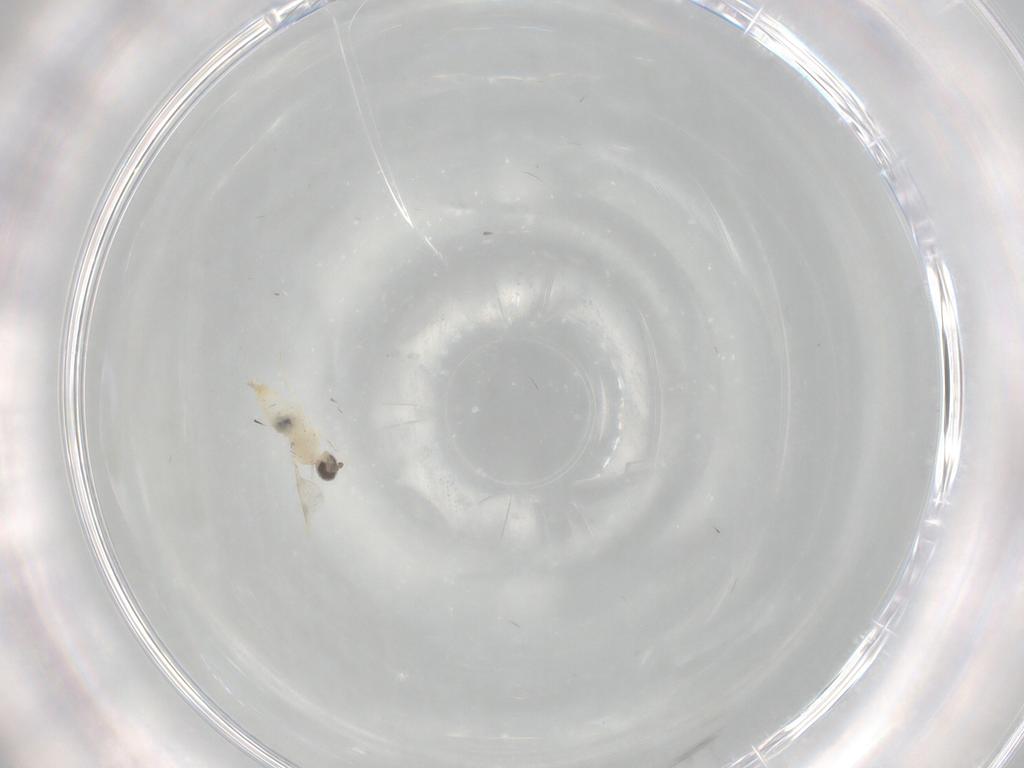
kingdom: Animalia
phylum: Arthropoda
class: Insecta
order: Diptera
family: Cecidomyiidae
